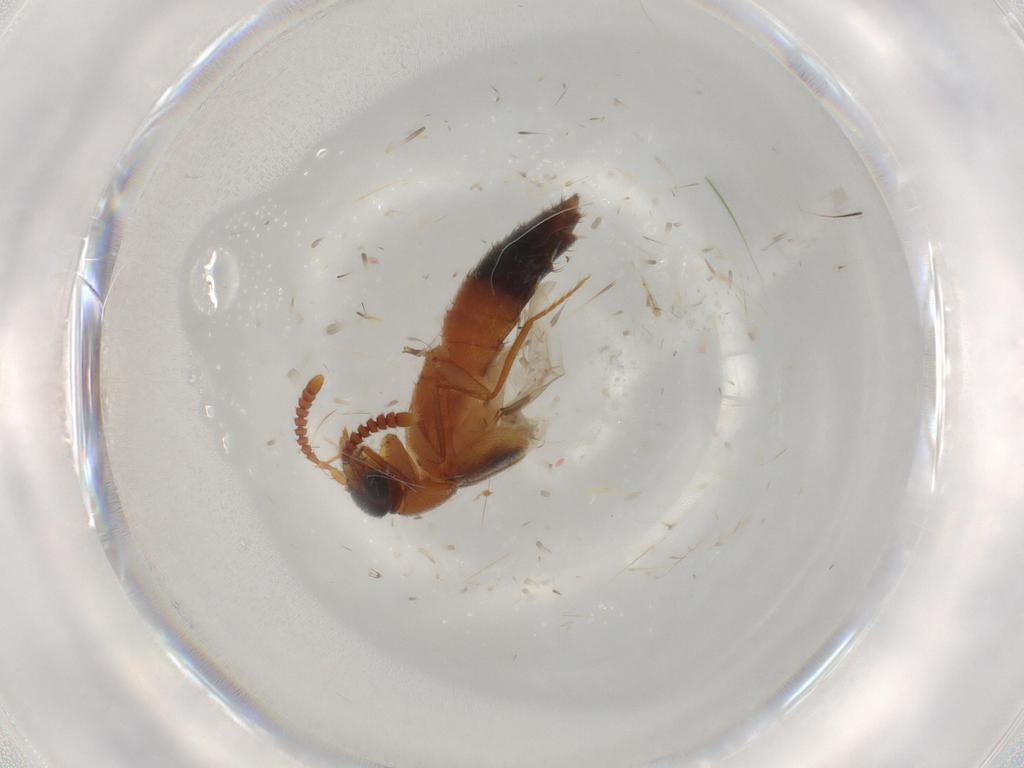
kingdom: Animalia
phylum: Arthropoda
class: Insecta
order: Coleoptera
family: Staphylinidae
